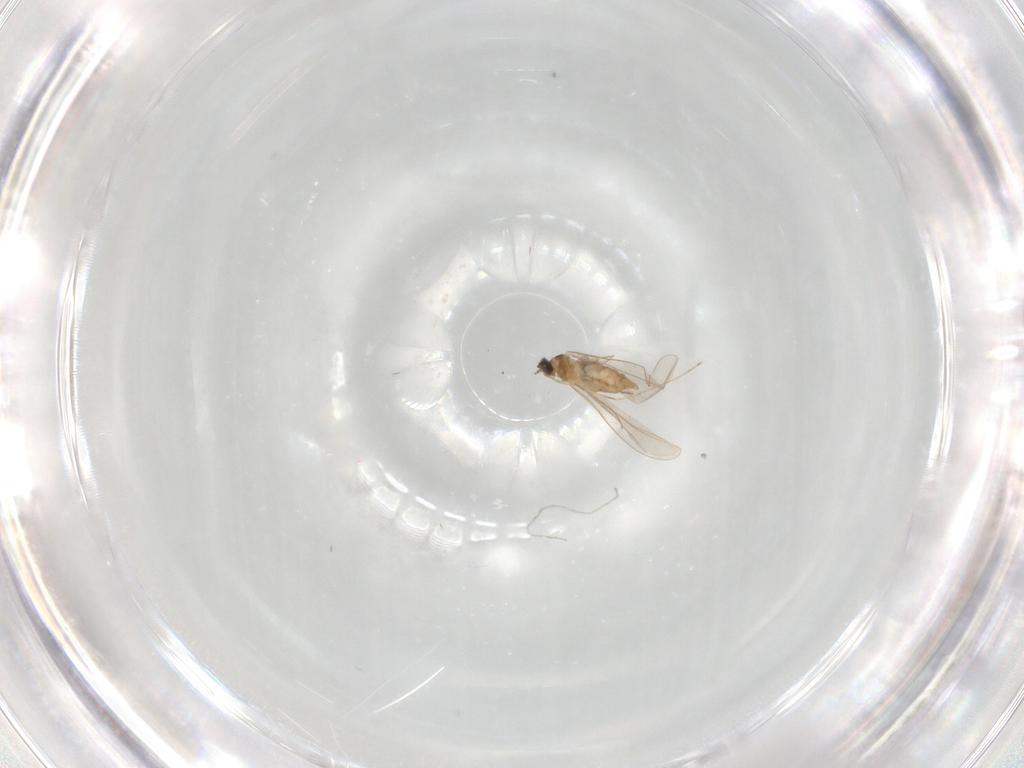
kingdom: Animalia
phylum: Arthropoda
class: Insecta
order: Diptera
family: Cecidomyiidae
